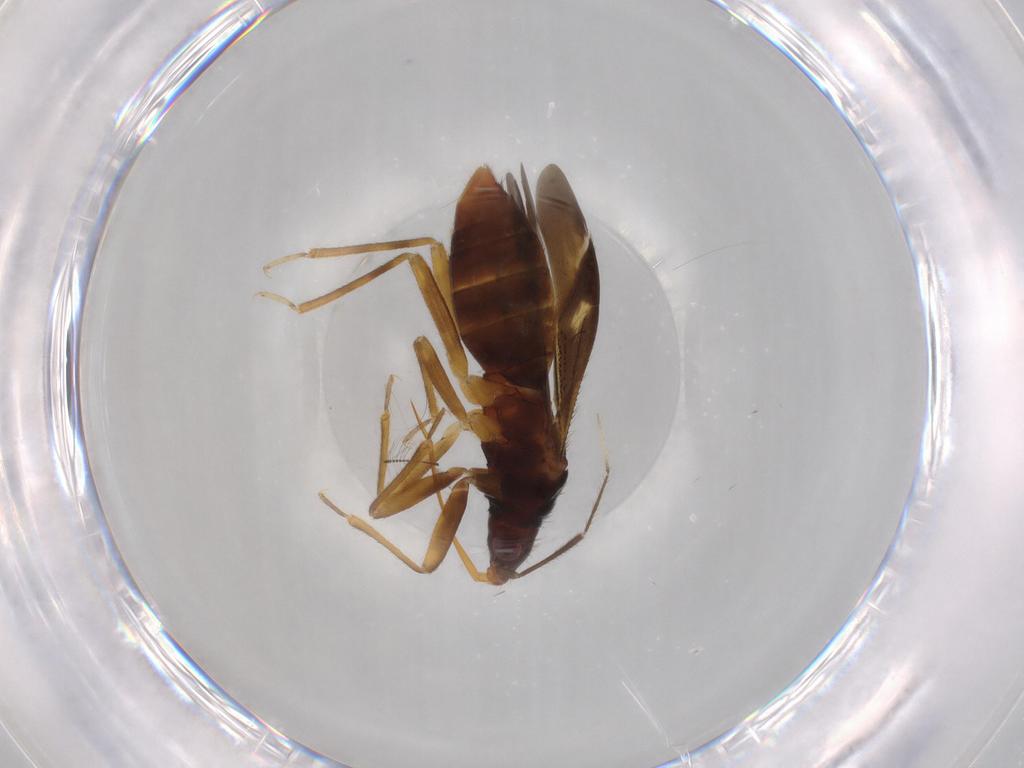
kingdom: Animalia
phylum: Arthropoda
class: Insecta
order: Hemiptera
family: Anthocoridae
